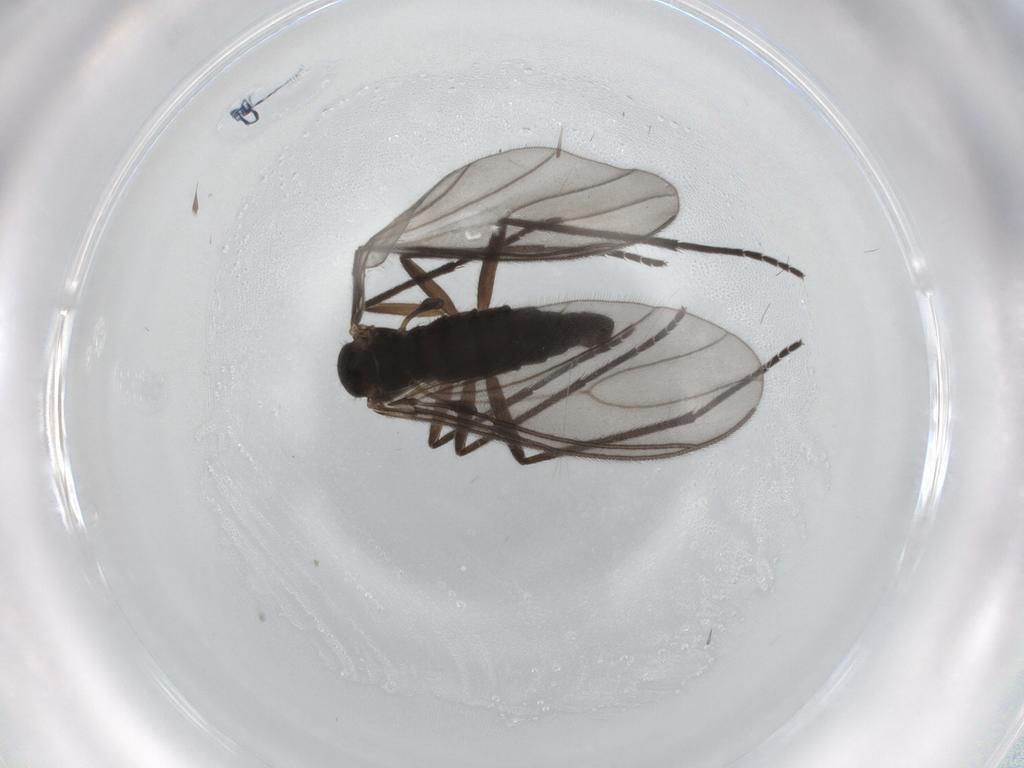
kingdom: Animalia
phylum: Arthropoda
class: Insecta
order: Diptera
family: Sciaridae
